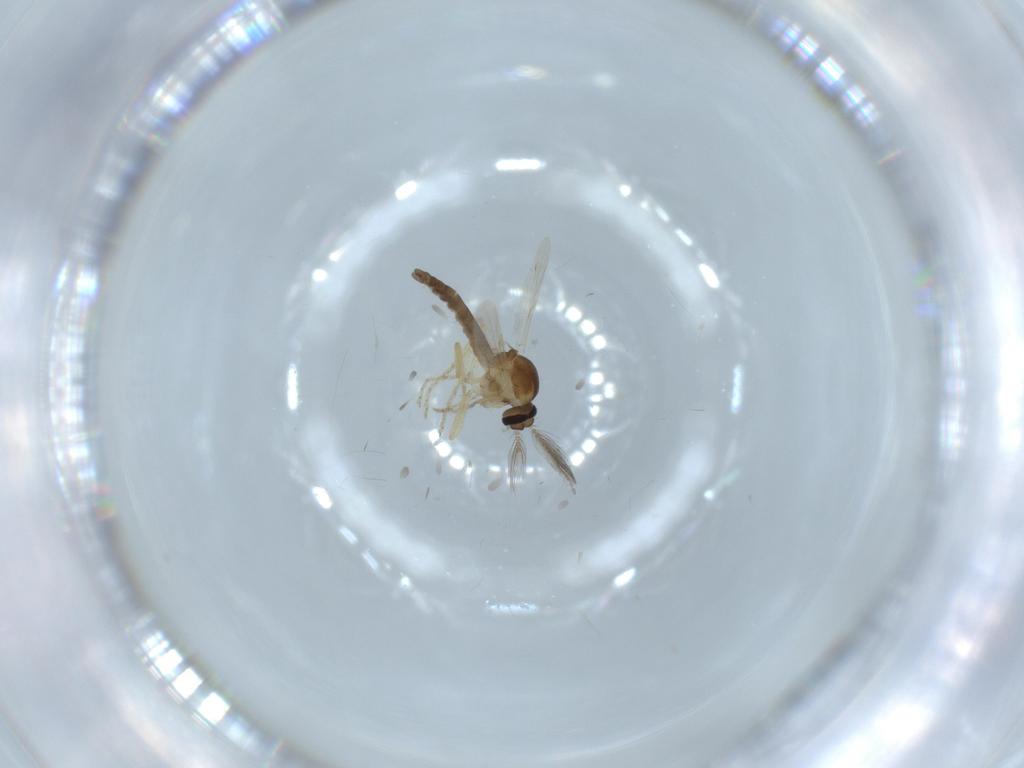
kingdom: Animalia
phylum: Arthropoda
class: Insecta
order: Diptera
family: Ceratopogonidae
